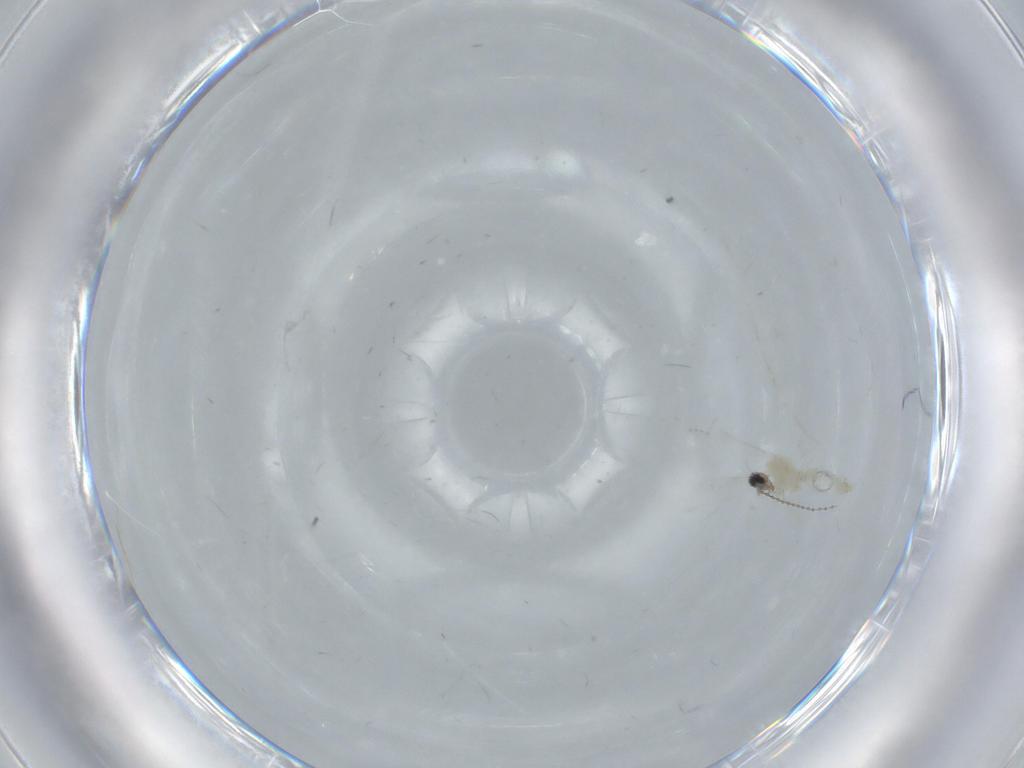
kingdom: Animalia
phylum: Arthropoda
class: Insecta
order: Diptera
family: Cecidomyiidae
